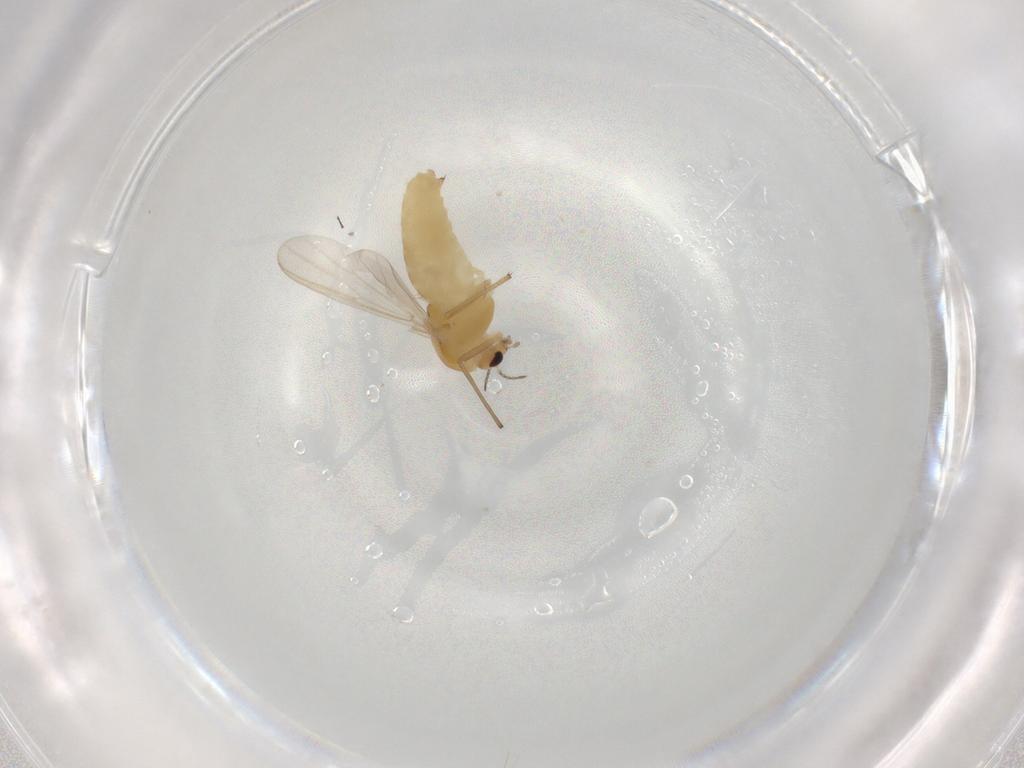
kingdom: Animalia
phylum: Arthropoda
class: Insecta
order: Diptera
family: Chironomidae
